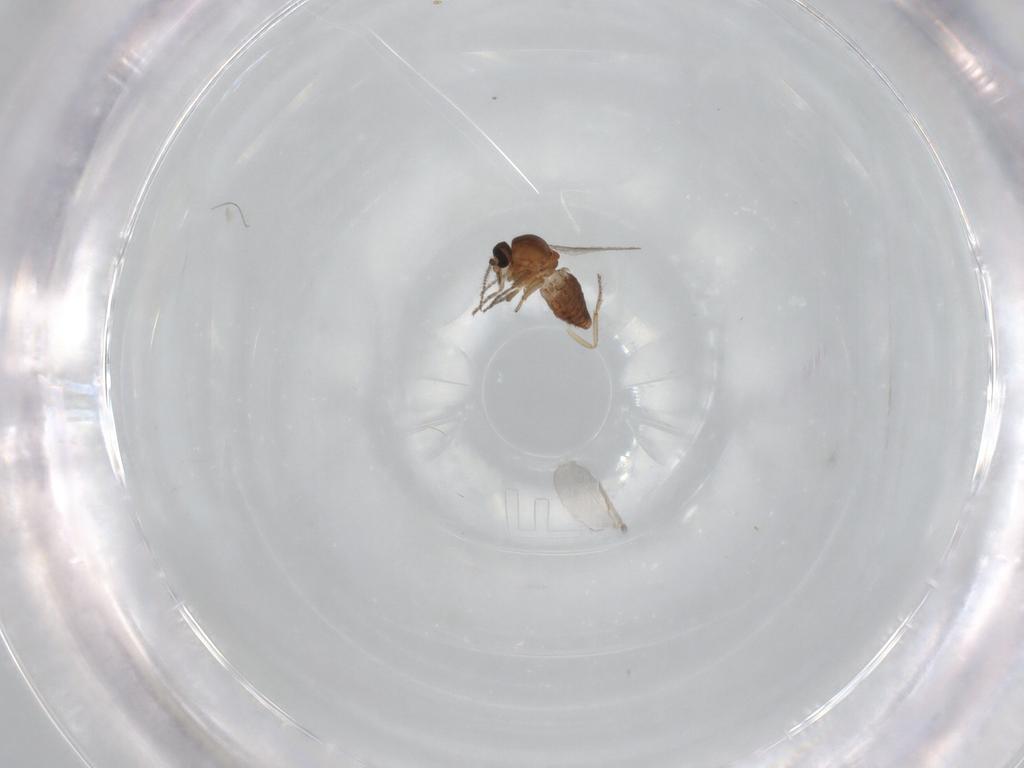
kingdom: Animalia
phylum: Arthropoda
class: Insecta
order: Diptera
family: Ceratopogonidae
